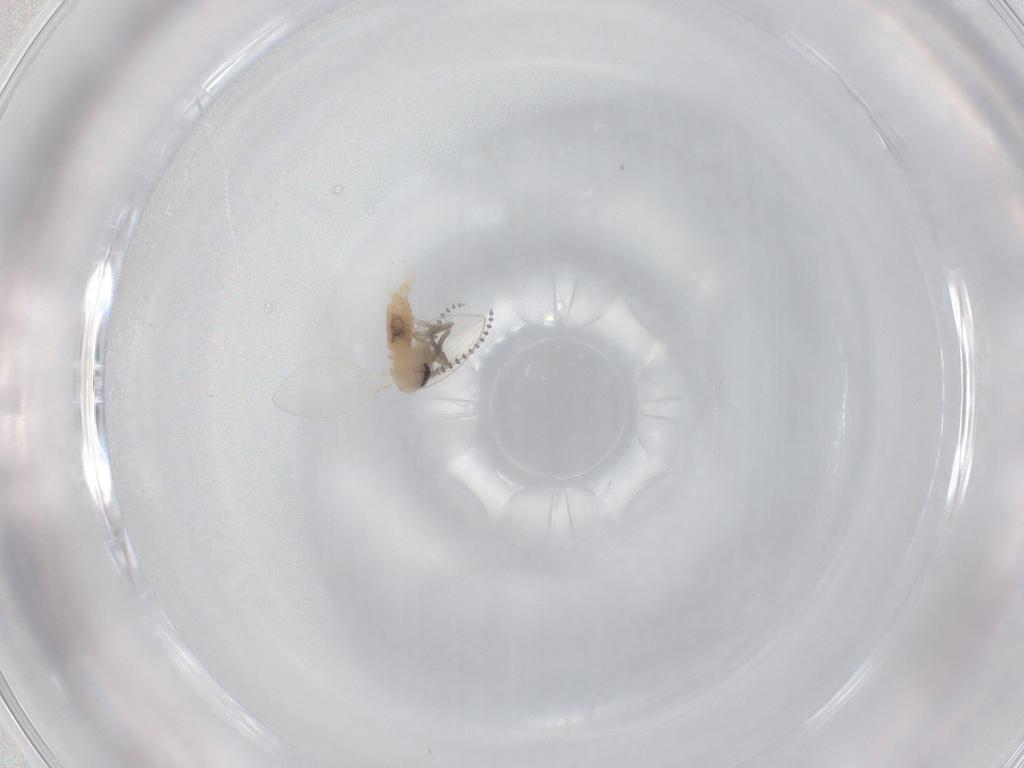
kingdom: Animalia
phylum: Arthropoda
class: Insecta
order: Diptera
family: Psychodidae
